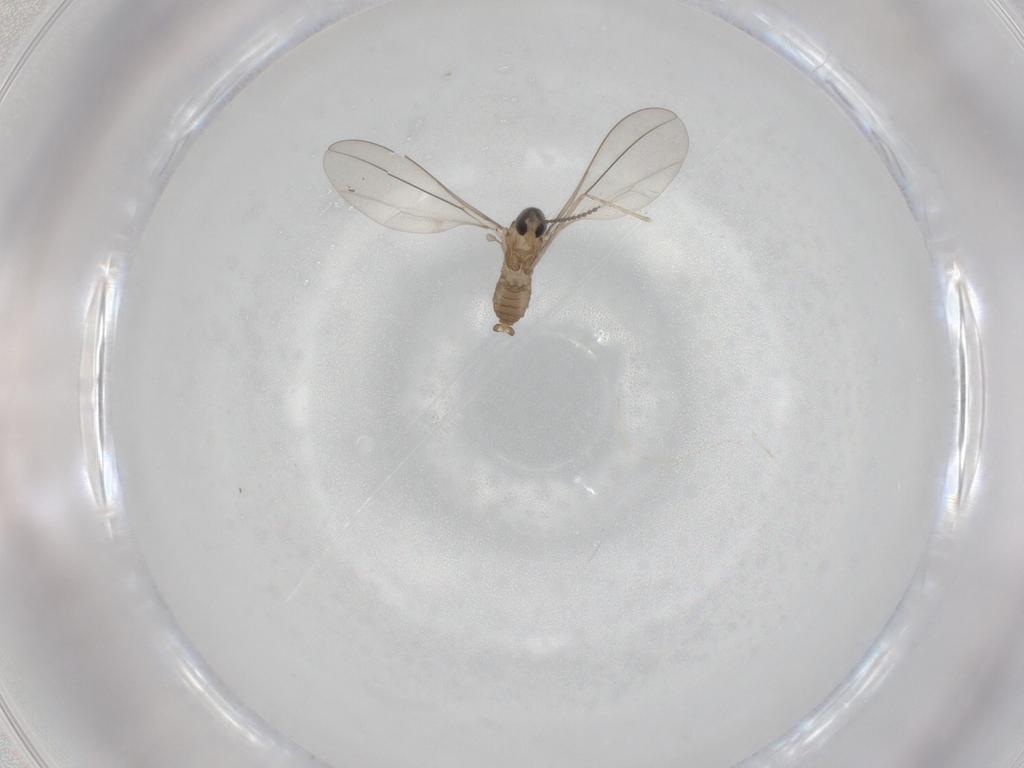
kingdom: Animalia
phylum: Arthropoda
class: Insecta
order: Diptera
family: Cecidomyiidae
